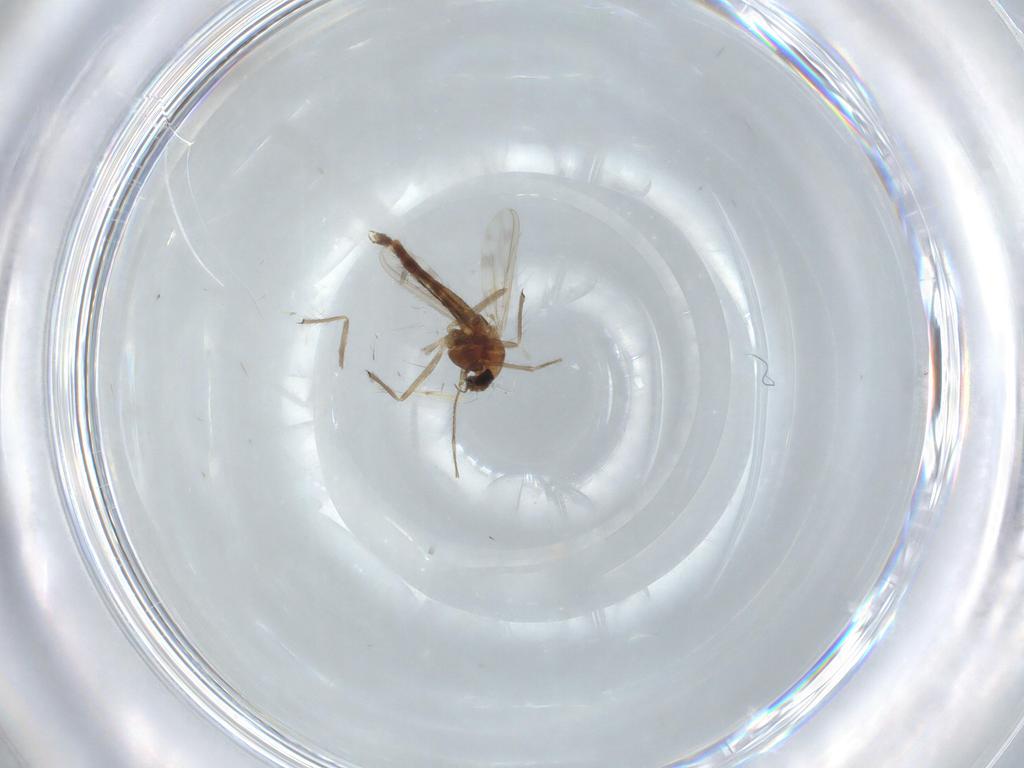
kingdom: Animalia
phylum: Arthropoda
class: Insecta
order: Diptera
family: Chironomidae
